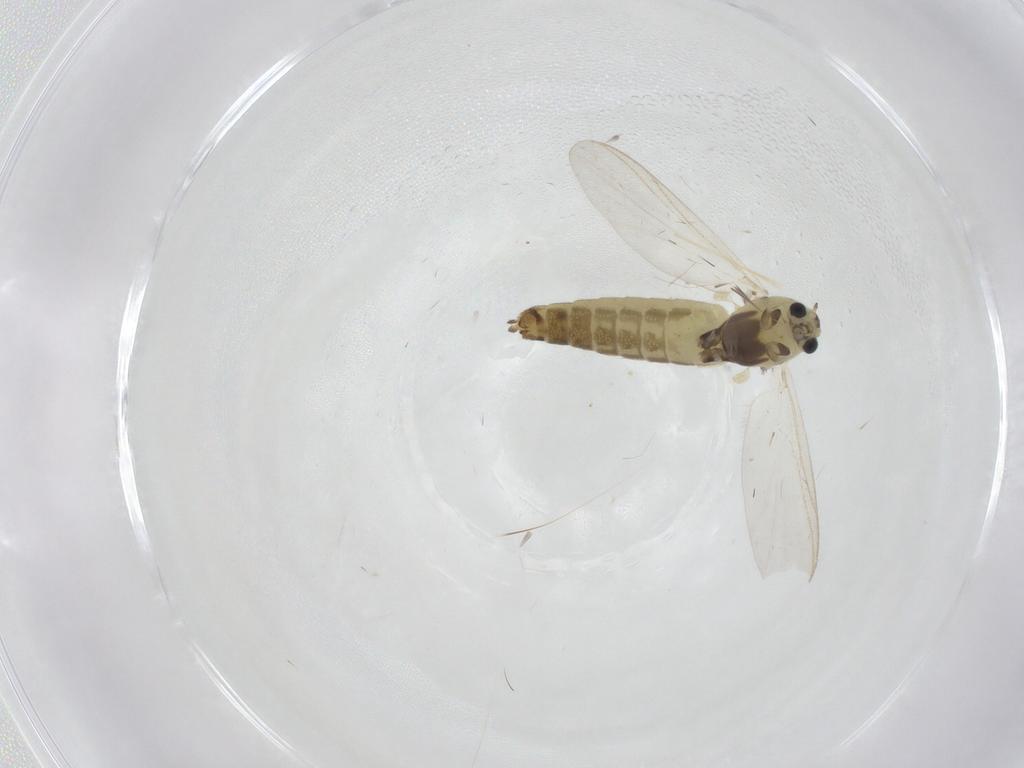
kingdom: Animalia
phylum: Arthropoda
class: Insecta
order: Diptera
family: Chironomidae
